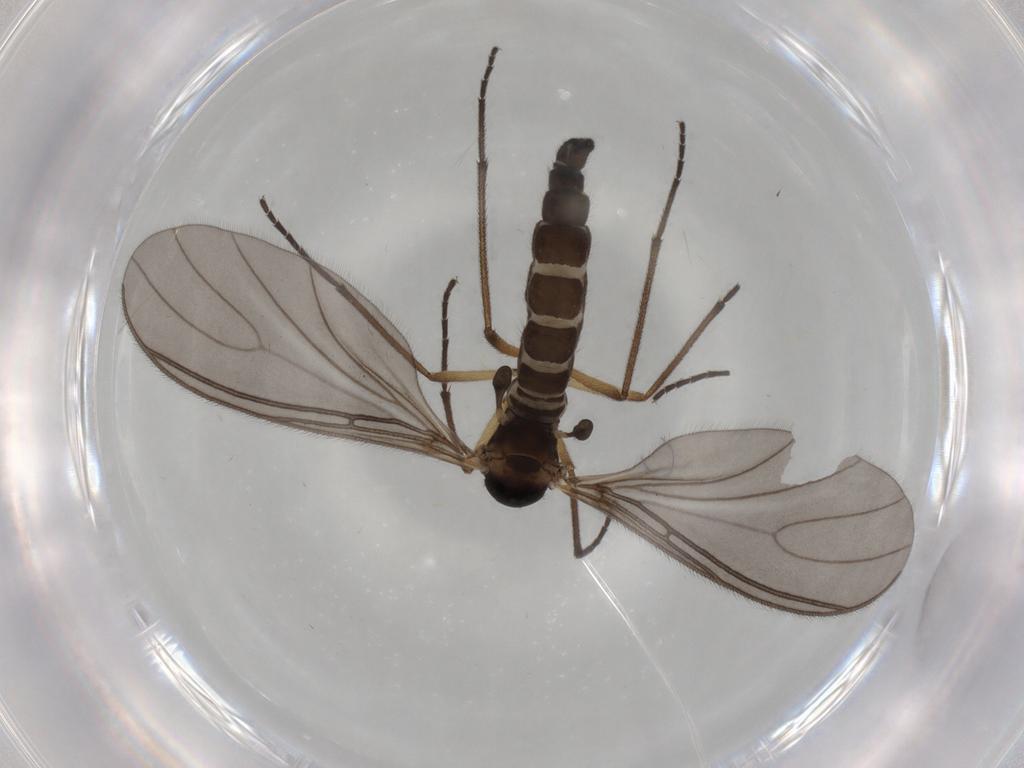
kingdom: Animalia
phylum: Arthropoda
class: Insecta
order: Diptera
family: Sciaridae
